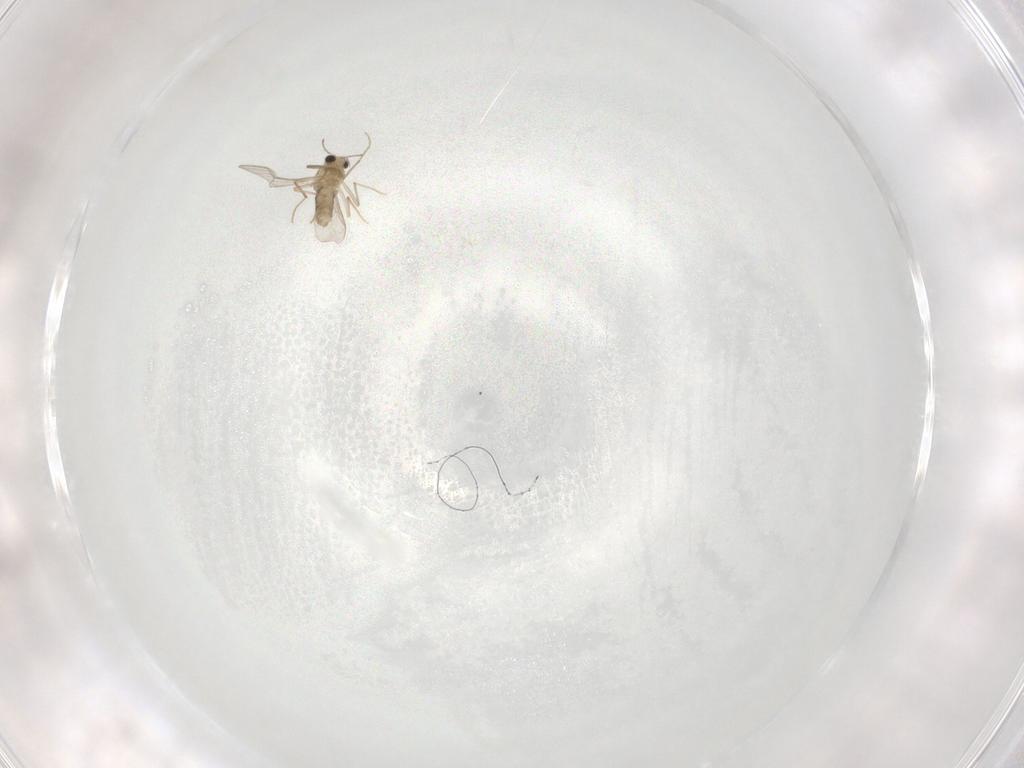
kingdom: Animalia
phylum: Arthropoda
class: Insecta
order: Diptera
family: Chironomidae
